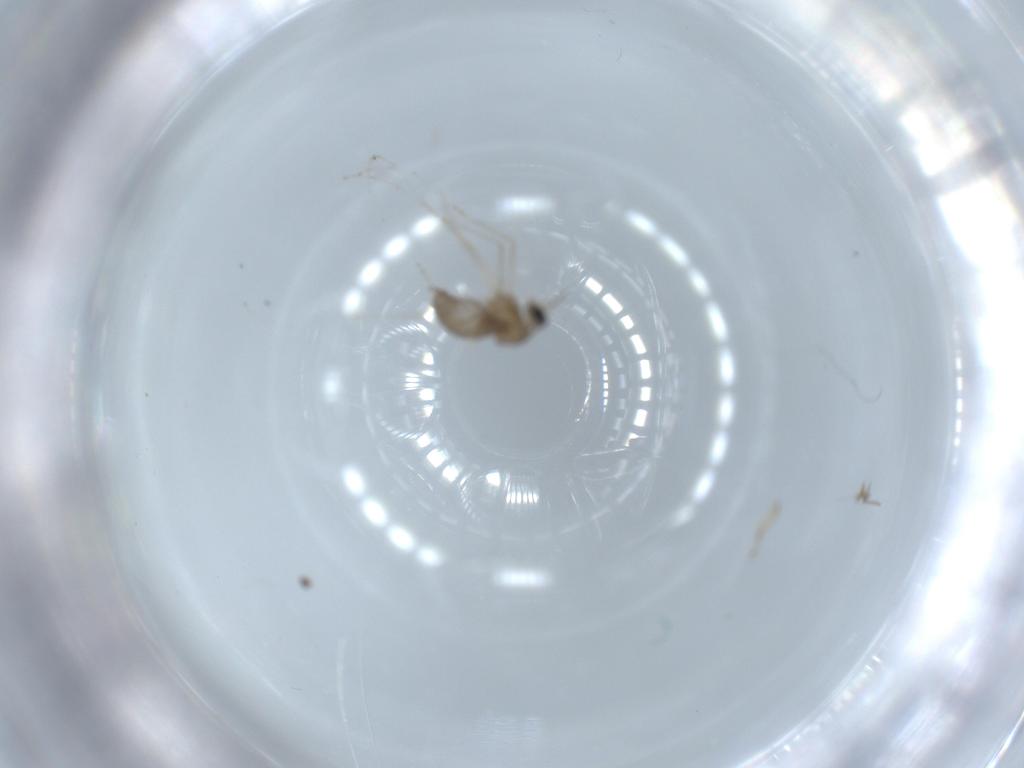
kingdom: Animalia
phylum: Arthropoda
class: Insecta
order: Diptera
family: Cecidomyiidae
